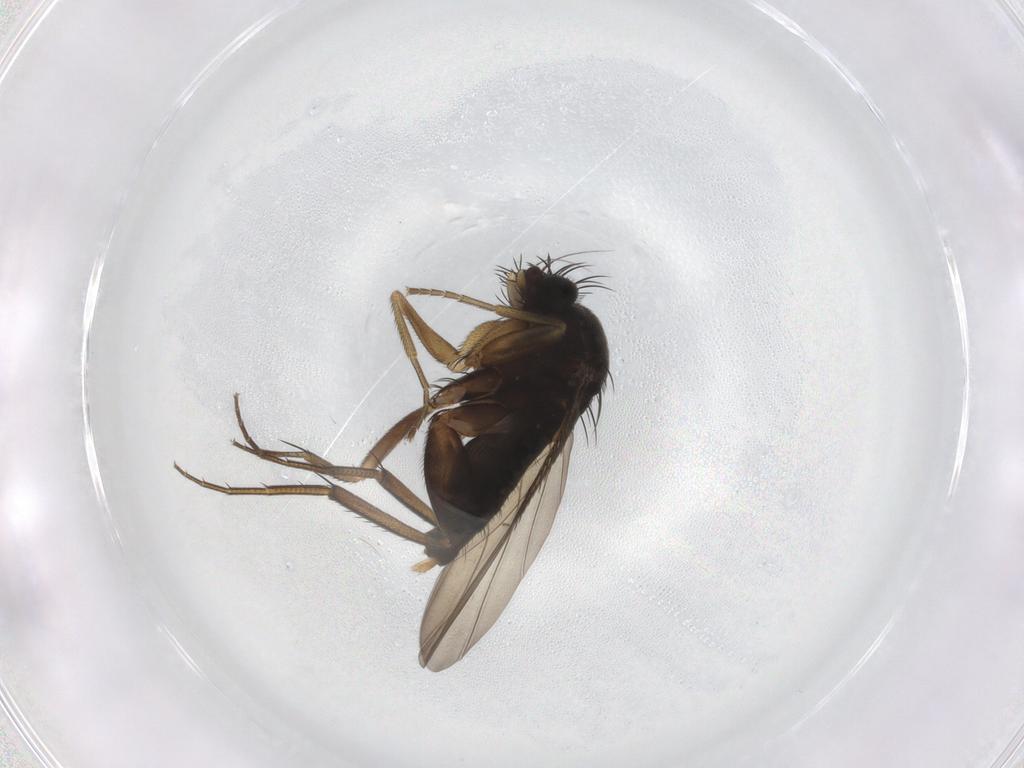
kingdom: Animalia
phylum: Arthropoda
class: Insecta
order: Diptera
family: Phoridae
